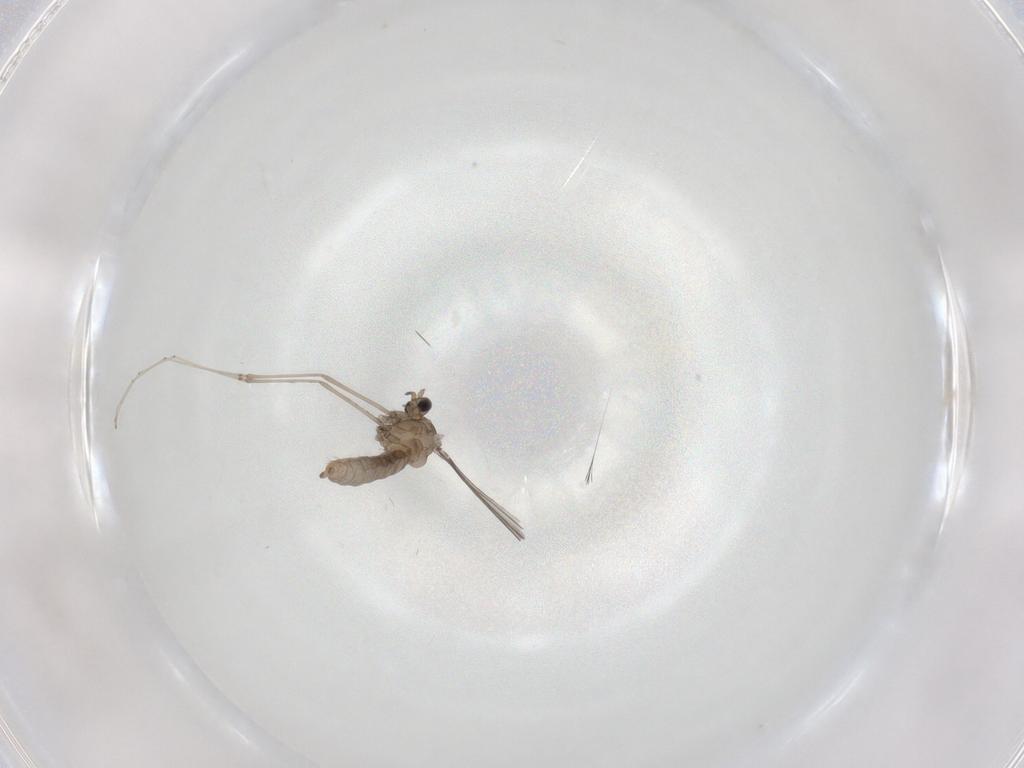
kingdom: Animalia
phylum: Arthropoda
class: Insecta
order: Diptera
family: Cecidomyiidae
